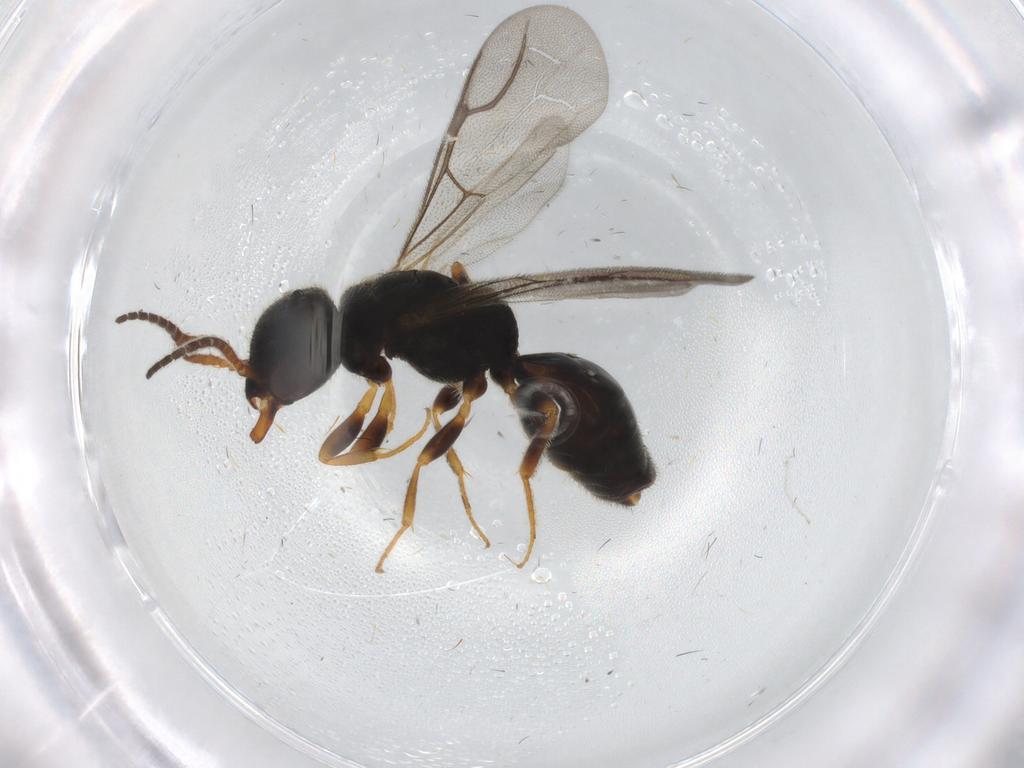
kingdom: Animalia
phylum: Arthropoda
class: Insecta
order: Hymenoptera
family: Bethylidae
